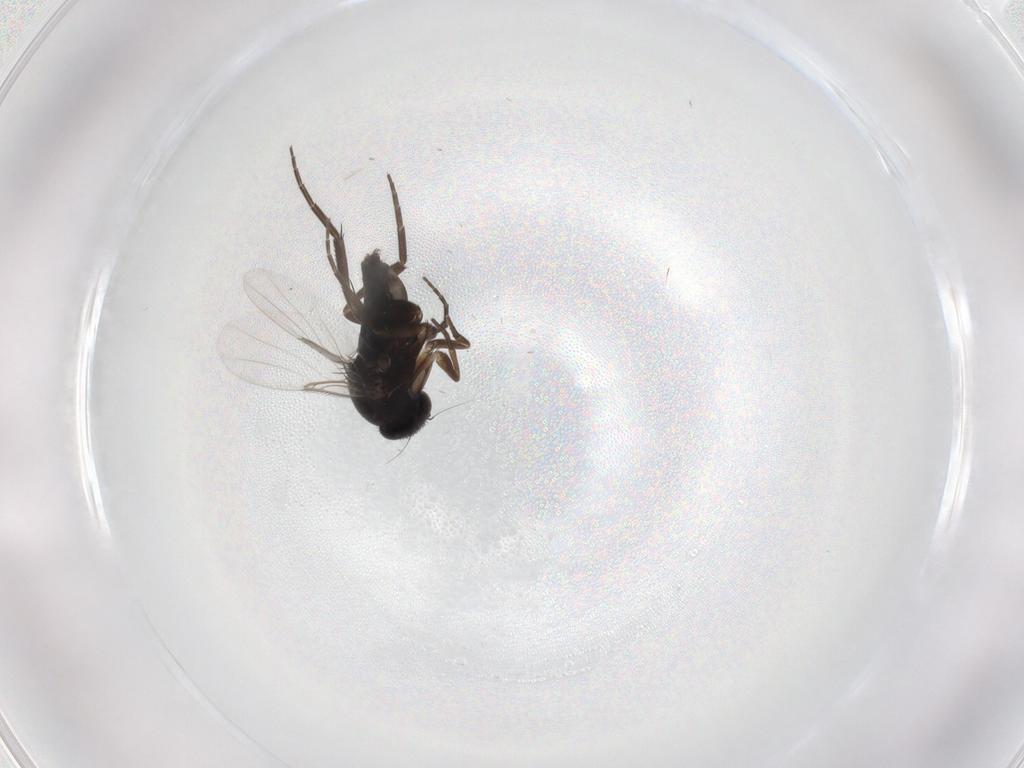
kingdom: Animalia
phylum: Arthropoda
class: Insecta
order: Diptera
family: Phoridae
